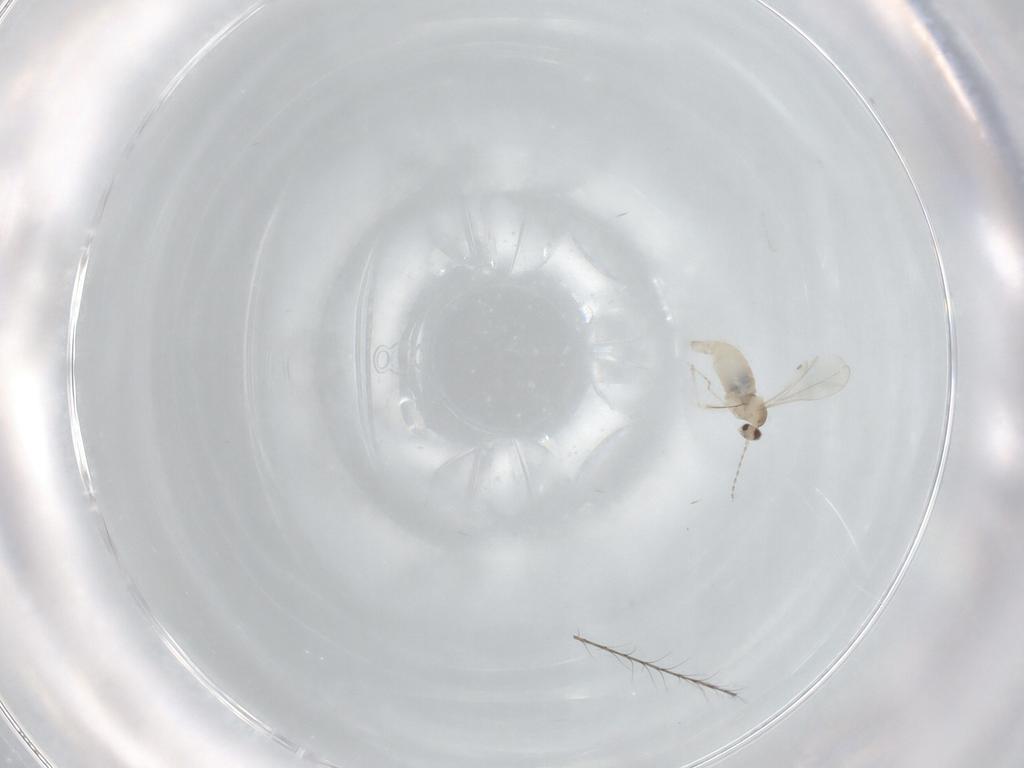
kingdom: Animalia
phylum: Arthropoda
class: Insecta
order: Diptera
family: Cecidomyiidae
